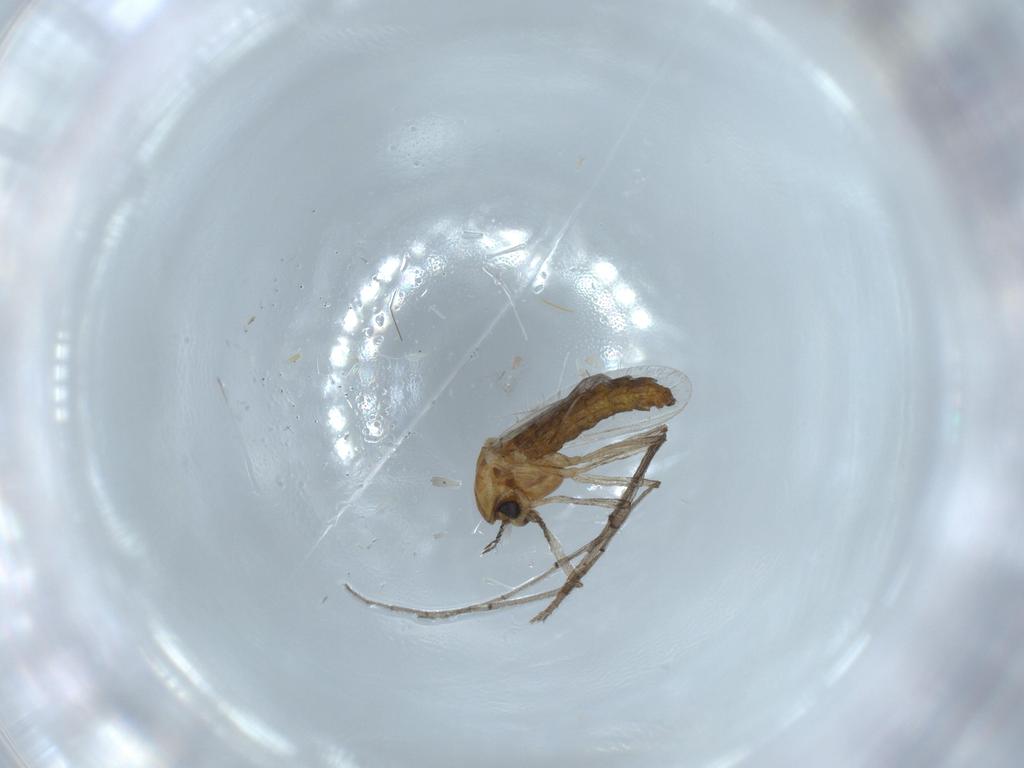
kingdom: Animalia
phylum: Arthropoda
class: Insecta
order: Diptera
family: Chironomidae
